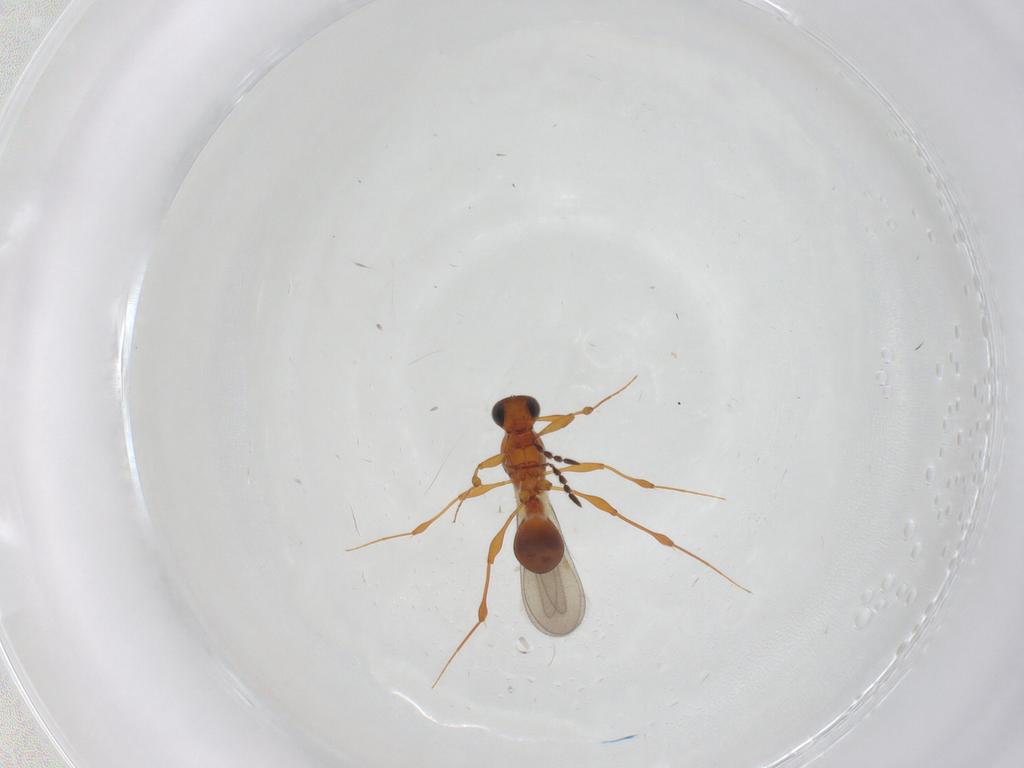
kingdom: Animalia
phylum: Arthropoda
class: Insecta
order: Hymenoptera
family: Platygastridae
